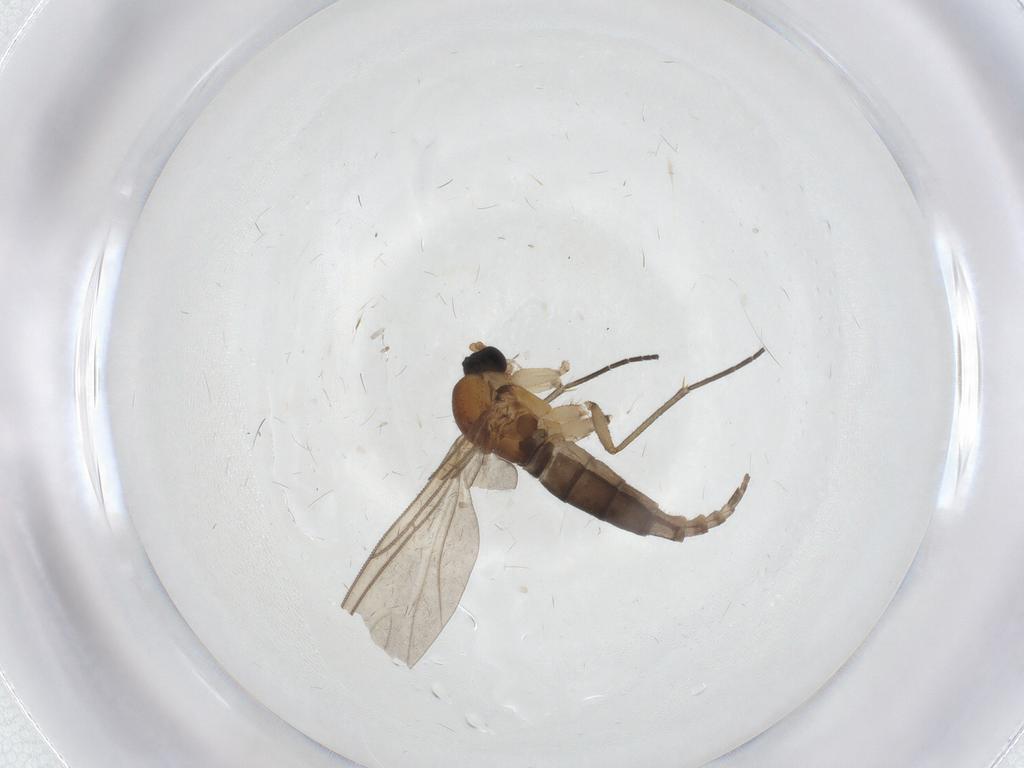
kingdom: Animalia
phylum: Arthropoda
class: Insecta
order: Diptera
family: Sciaridae
